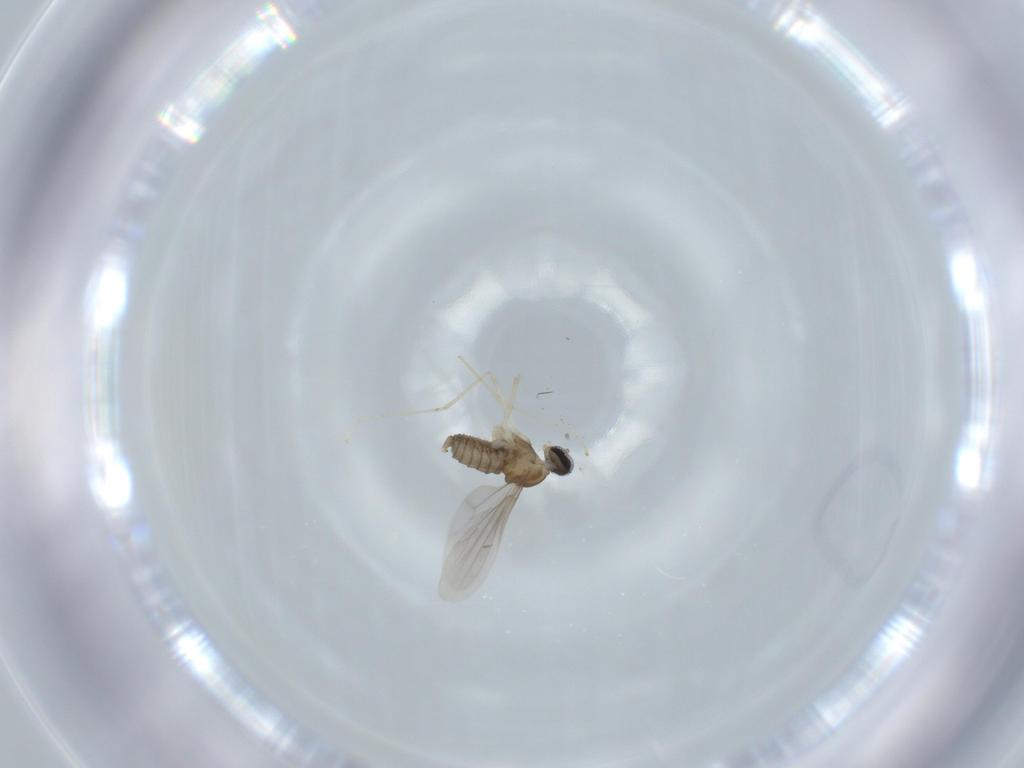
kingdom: Animalia
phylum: Arthropoda
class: Insecta
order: Diptera
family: Cecidomyiidae
